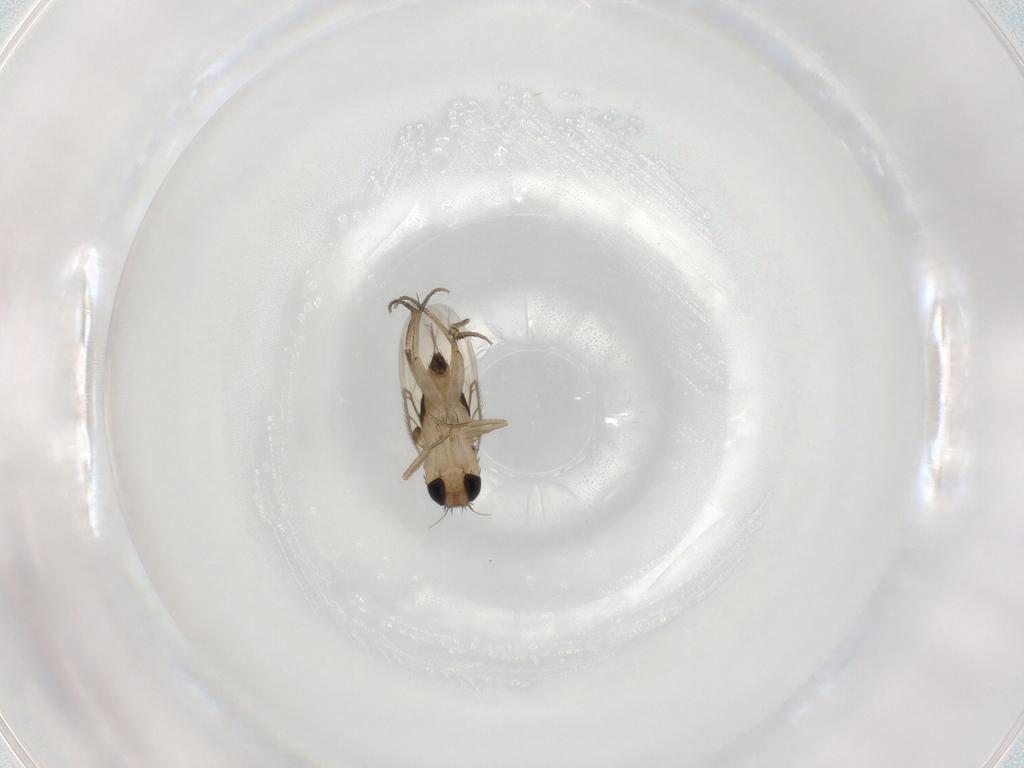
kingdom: Animalia
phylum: Arthropoda
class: Insecta
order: Diptera
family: Phoridae
